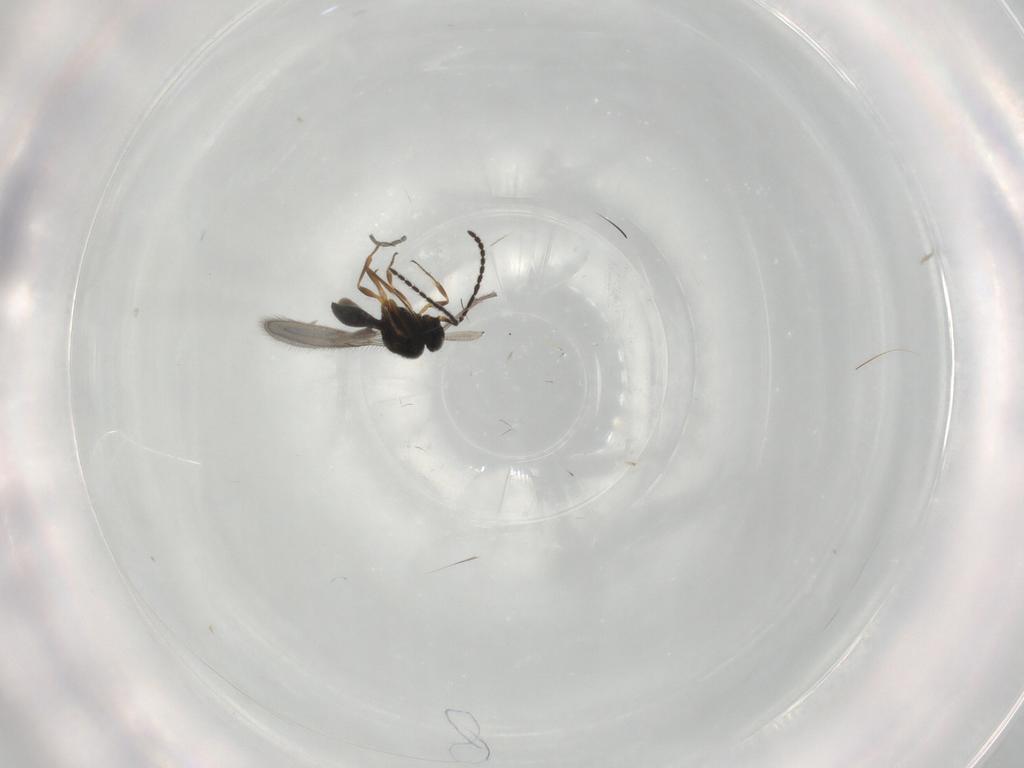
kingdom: Animalia
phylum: Arthropoda
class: Insecta
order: Hymenoptera
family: Scelionidae
